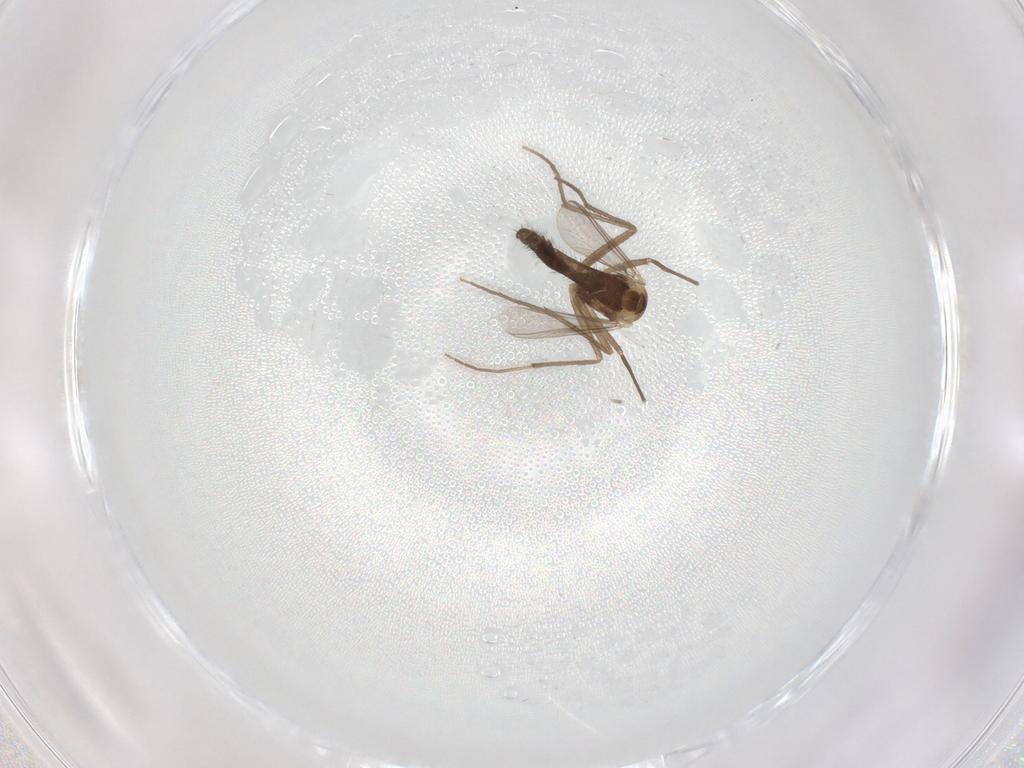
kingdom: Animalia
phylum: Arthropoda
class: Insecta
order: Diptera
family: Chironomidae
